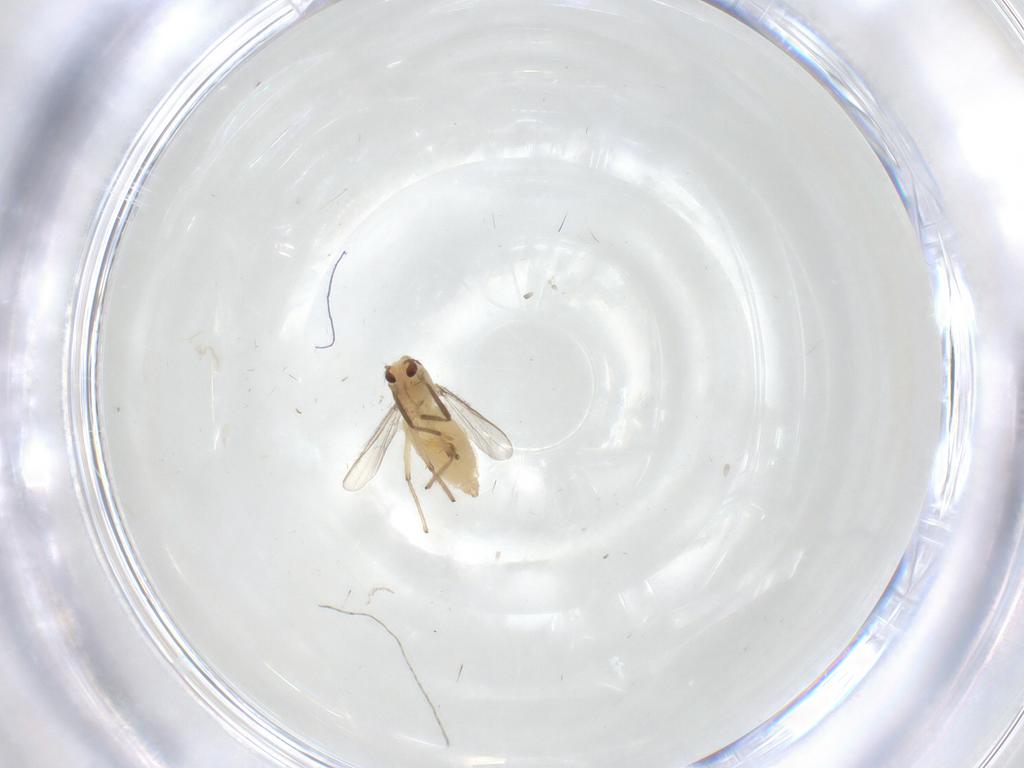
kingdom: Animalia
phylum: Arthropoda
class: Insecta
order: Diptera
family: Chironomidae
